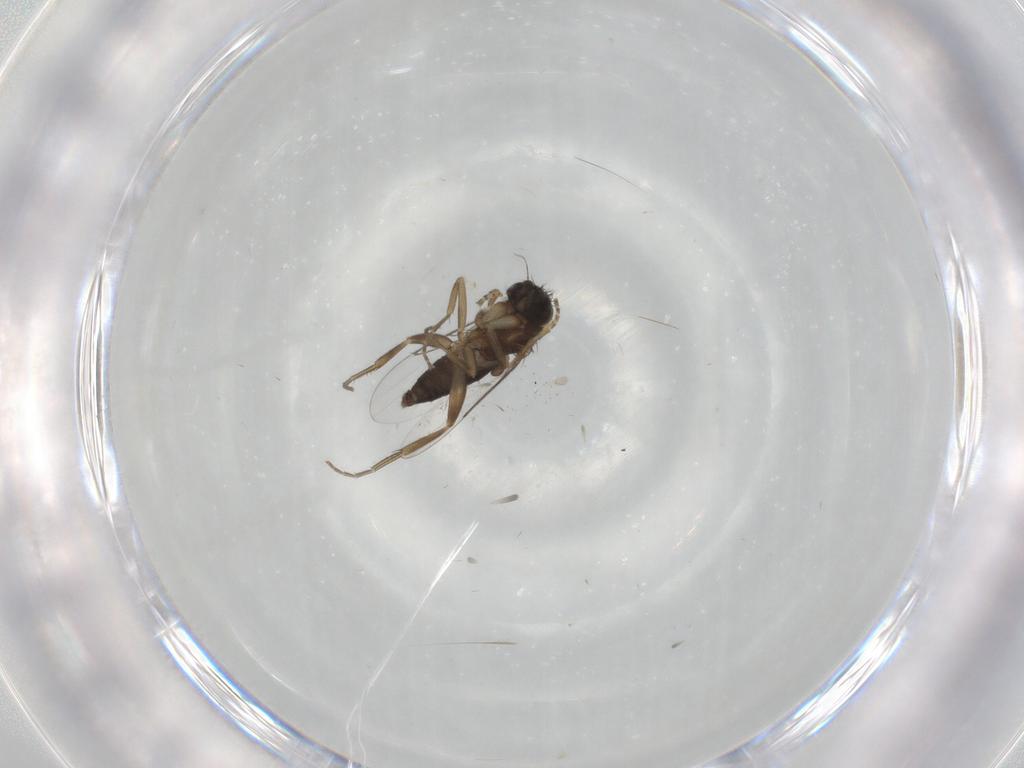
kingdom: Animalia
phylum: Arthropoda
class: Insecta
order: Diptera
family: Phoridae
